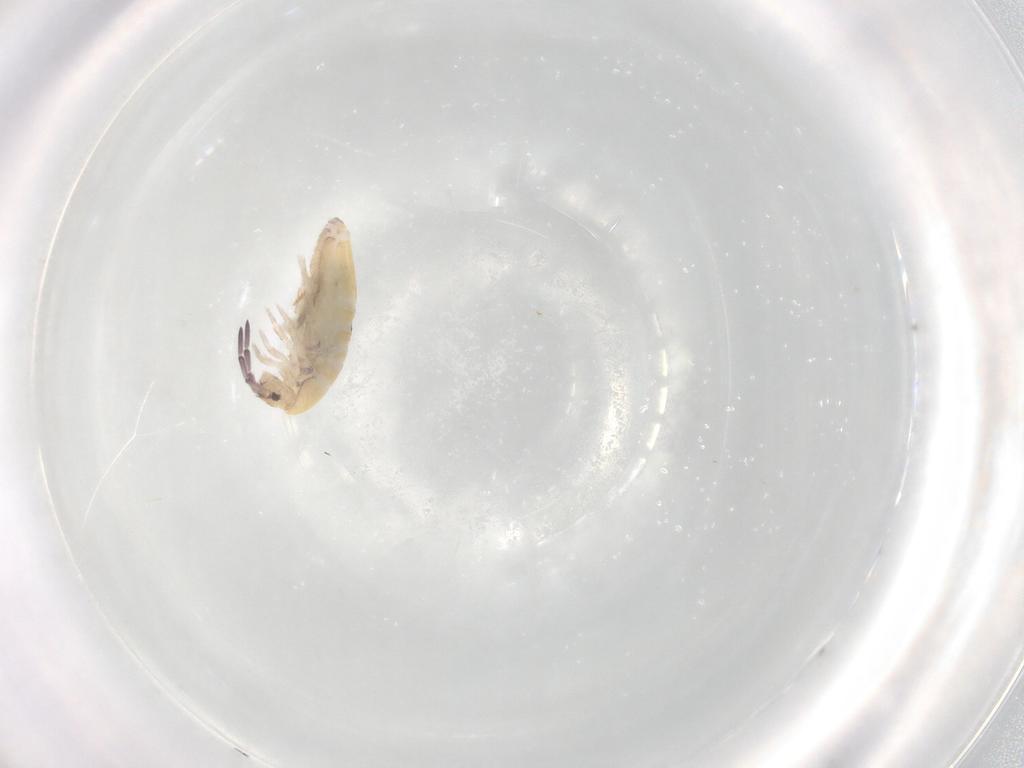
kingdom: Animalia
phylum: Arthropoda
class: Collembola
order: Entomobryomorpha
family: Entomobryidae
